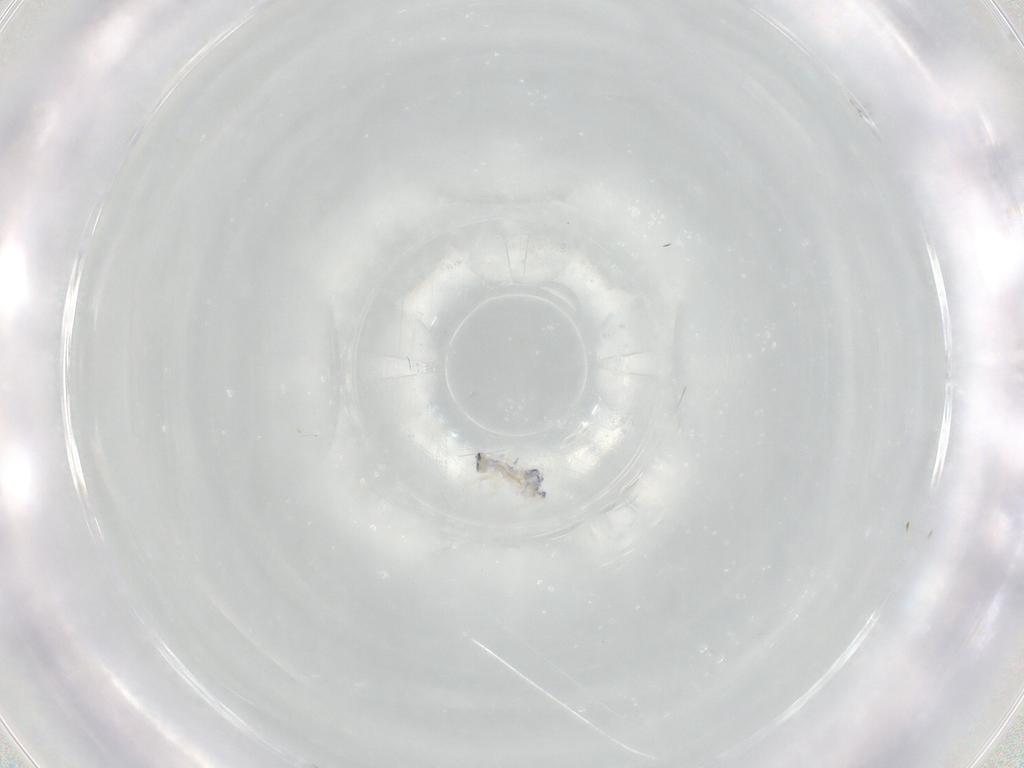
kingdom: Animalia
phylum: Arthropoda
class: Collembola
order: Entomobryomorpha
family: Entomobryidae
